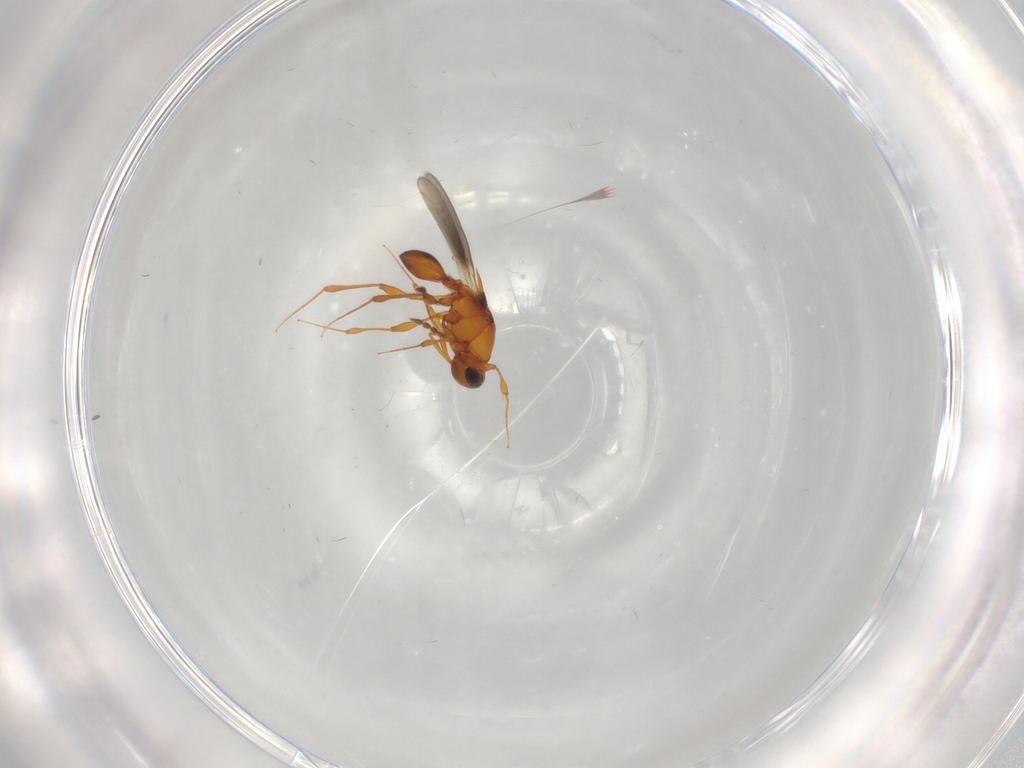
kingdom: Animalia
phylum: Arthropoda
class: Insecta
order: Hymenoptera
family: Platygastridae
